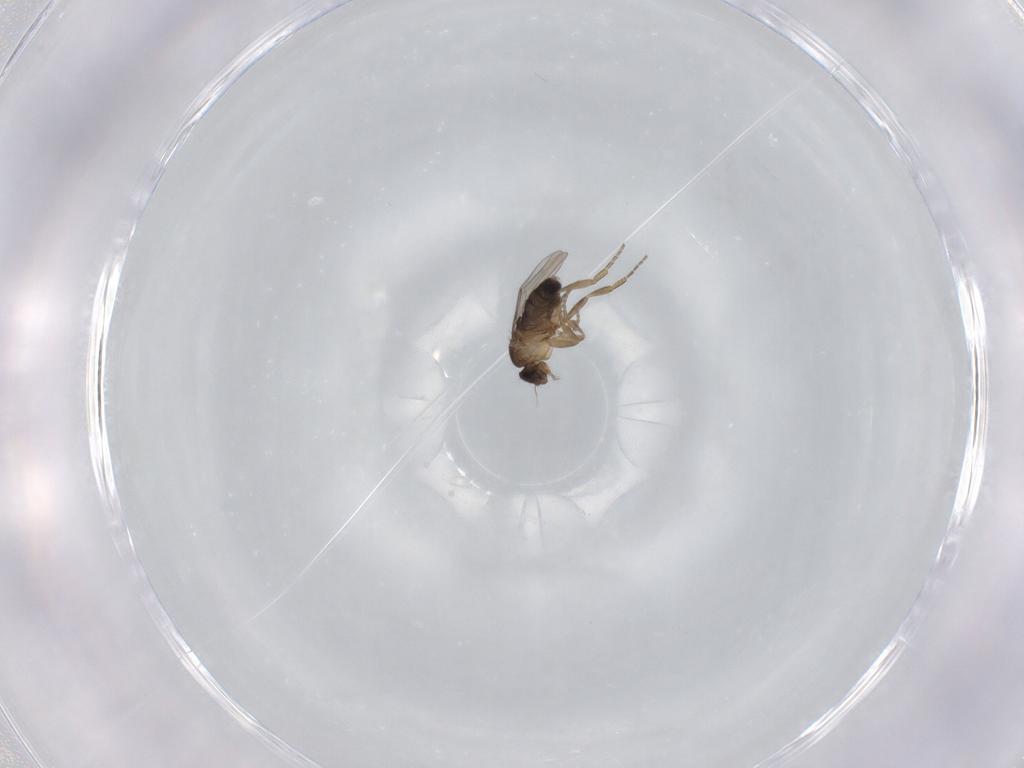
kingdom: Animalia
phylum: Arthropoda
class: Insecta
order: Diptera
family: Phoridae
